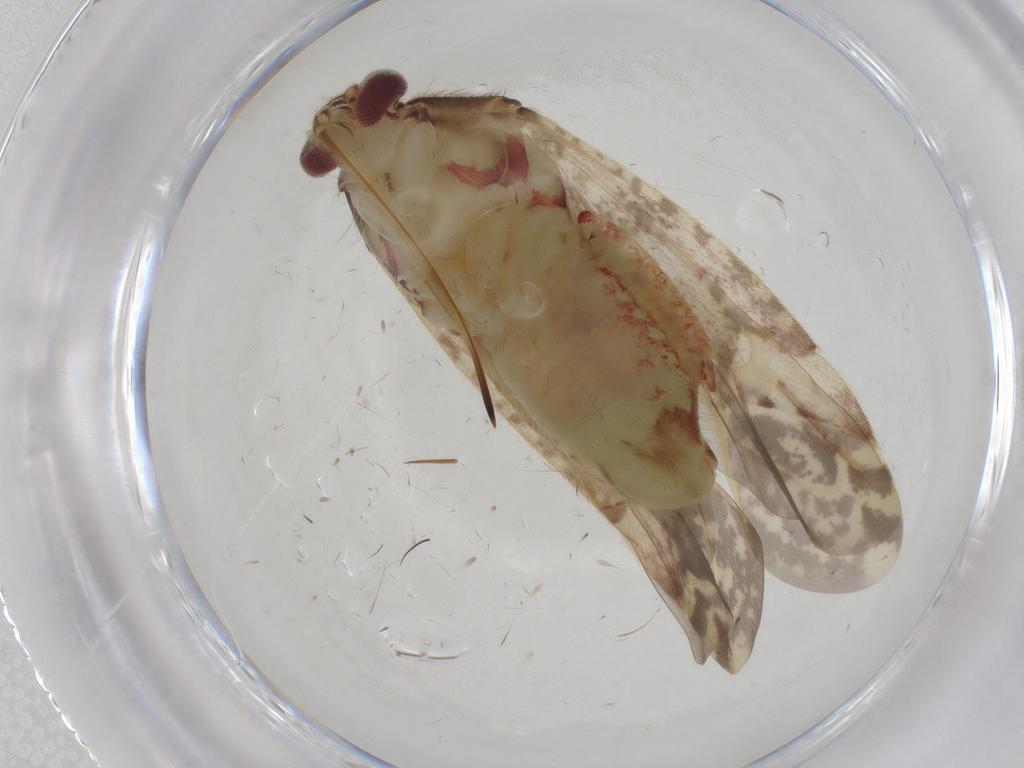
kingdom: Animalia
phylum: Arthropoda
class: Insecta
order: Hemiptera
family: Miridae
